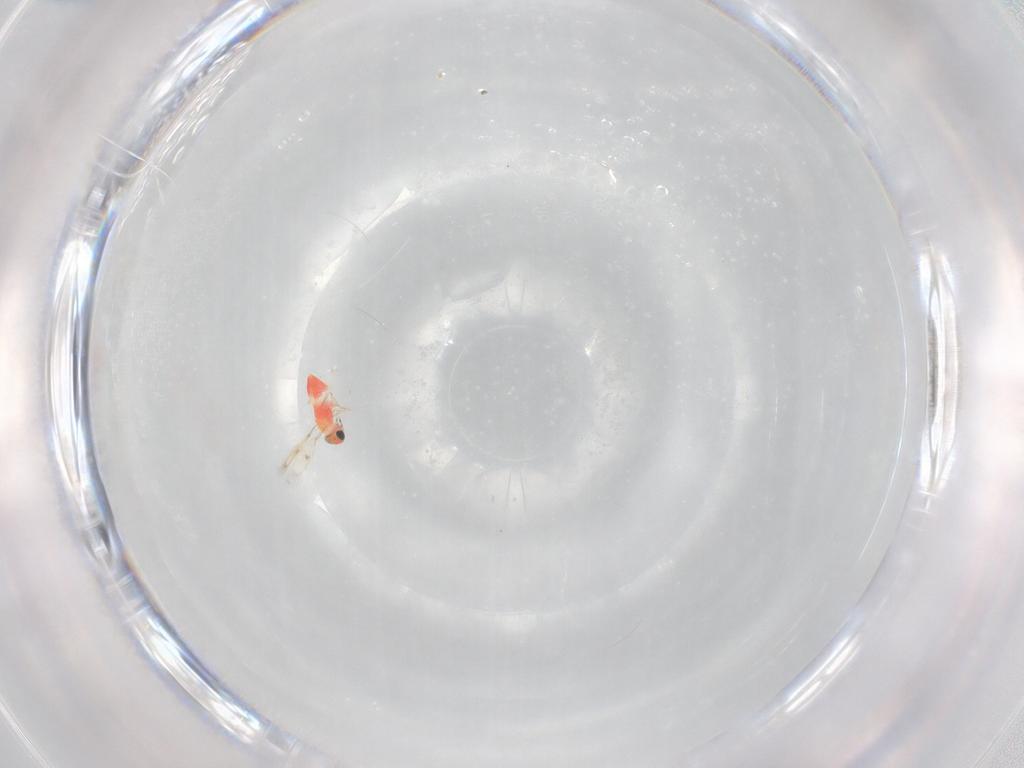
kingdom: Animalia
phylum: Arthropoda
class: Insecta
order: Hymenoptera
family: Trichogrammatidae
